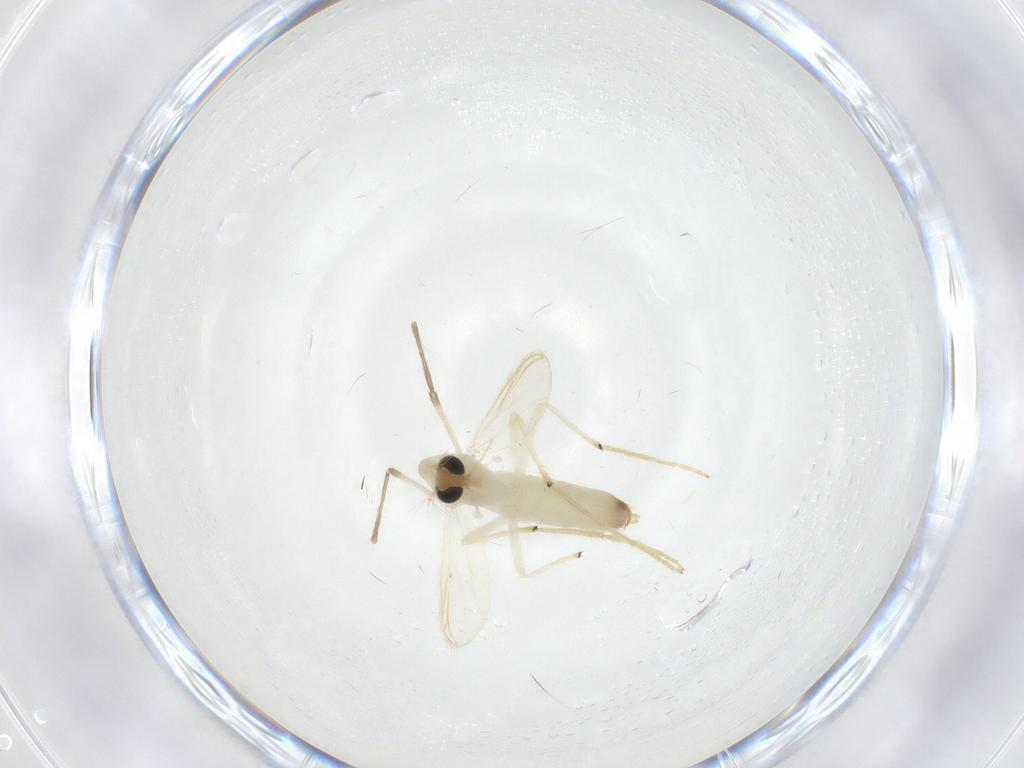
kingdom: Animalia
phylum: Arthropoda
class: Insecta
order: Diptera
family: Chironomidae
